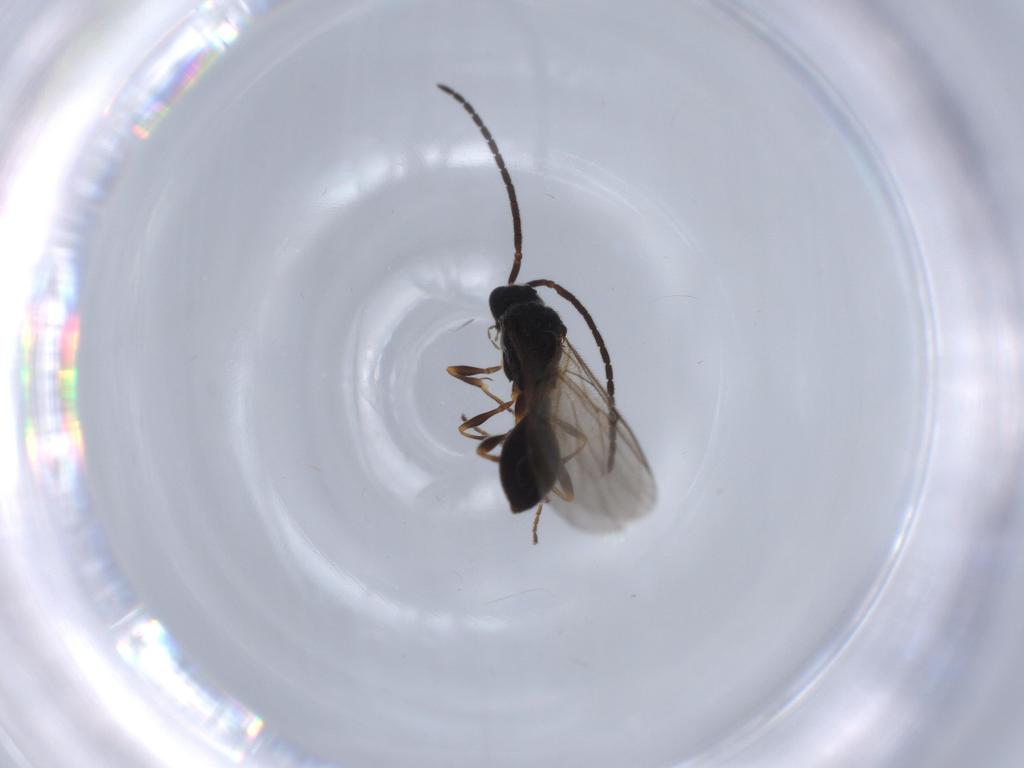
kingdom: Animalia
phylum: Arthropoda
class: Insecta
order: Hymenoptera
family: Diapriidae
